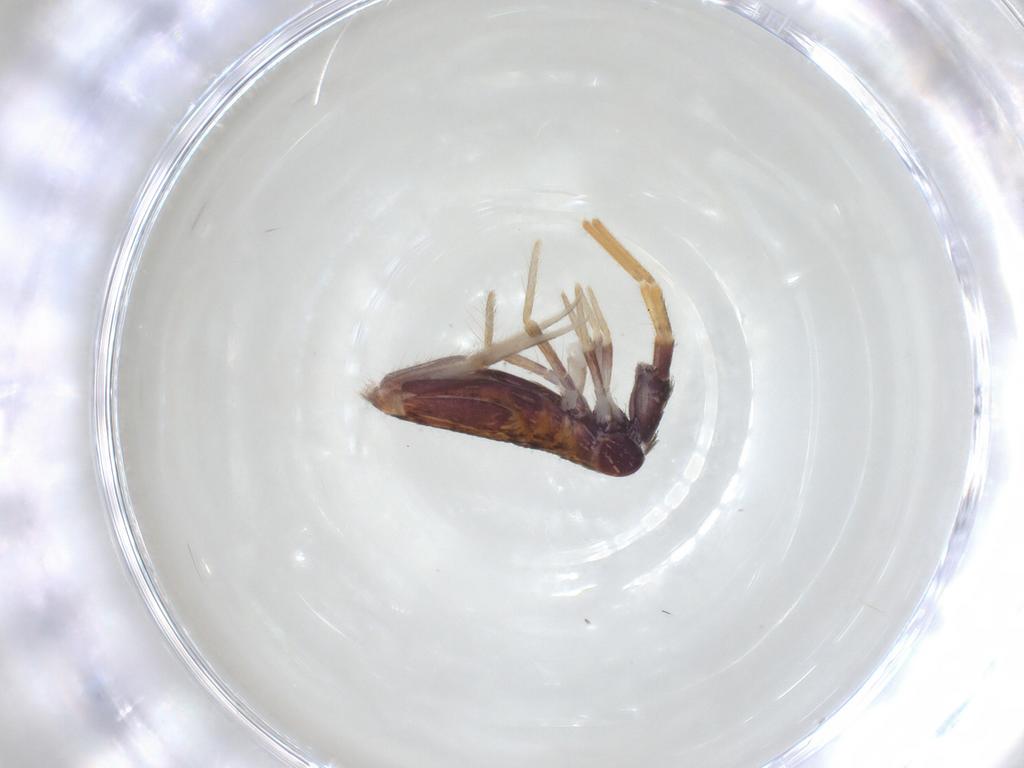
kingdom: Animalia
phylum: Arthropoda
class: Collembola
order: Entomobryomorpha
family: Entomobryidae
